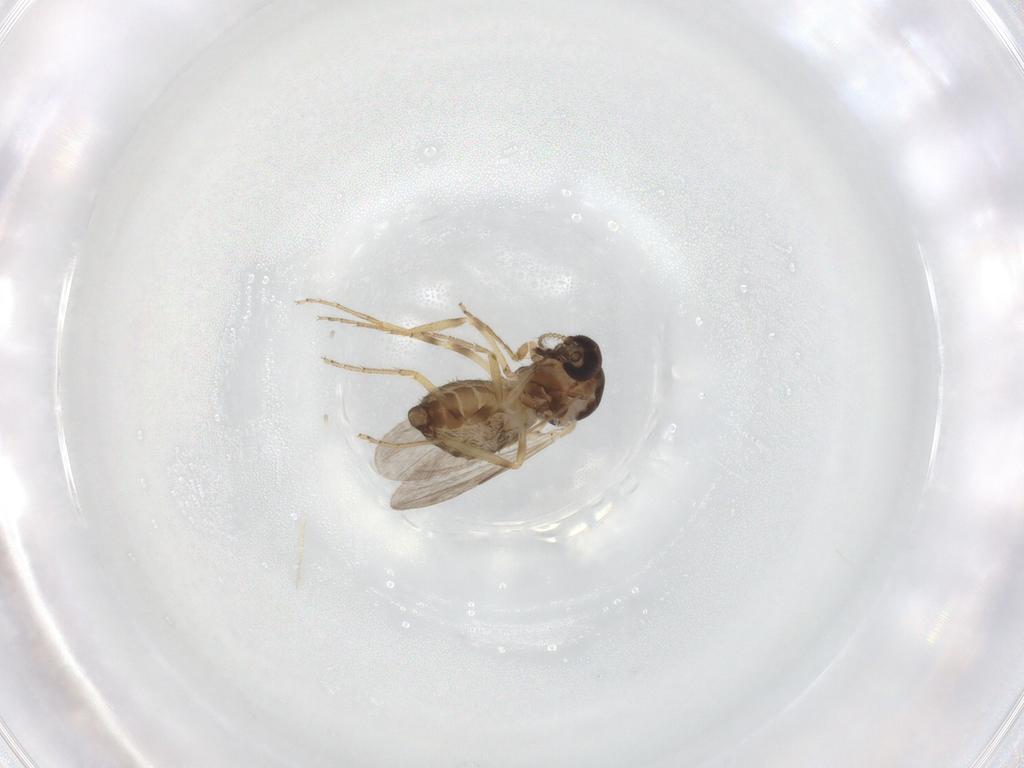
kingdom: Animalia
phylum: Arthropoda
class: Insecta
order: Diptera
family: Ceratopogonidae
